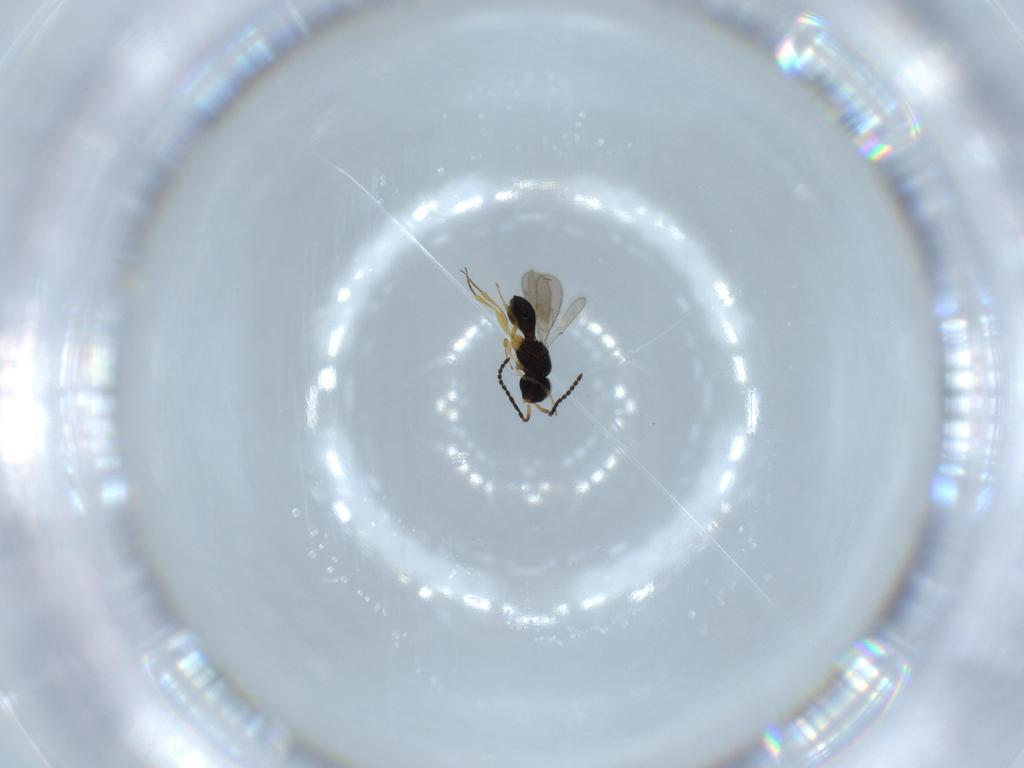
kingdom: Animalia
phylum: Arthropoda
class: Insecta
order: Hymenoptera
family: Scelionidae
